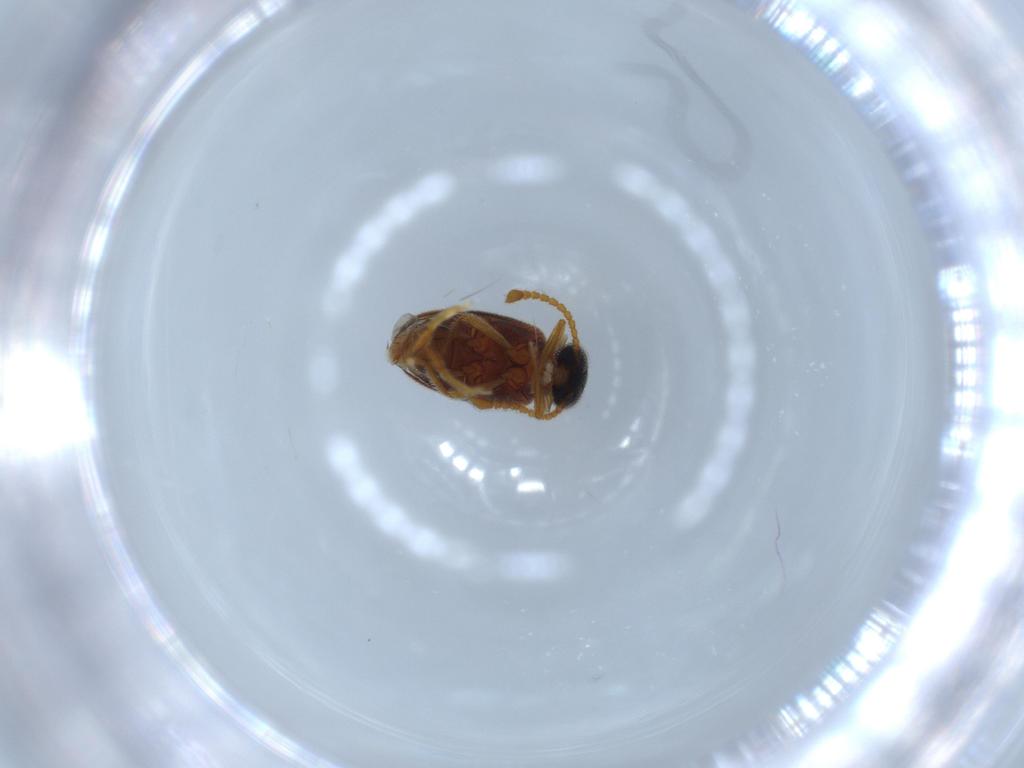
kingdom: Animalia
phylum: Arthropoda
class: Insecta
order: Coleoptera
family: Aderidae
